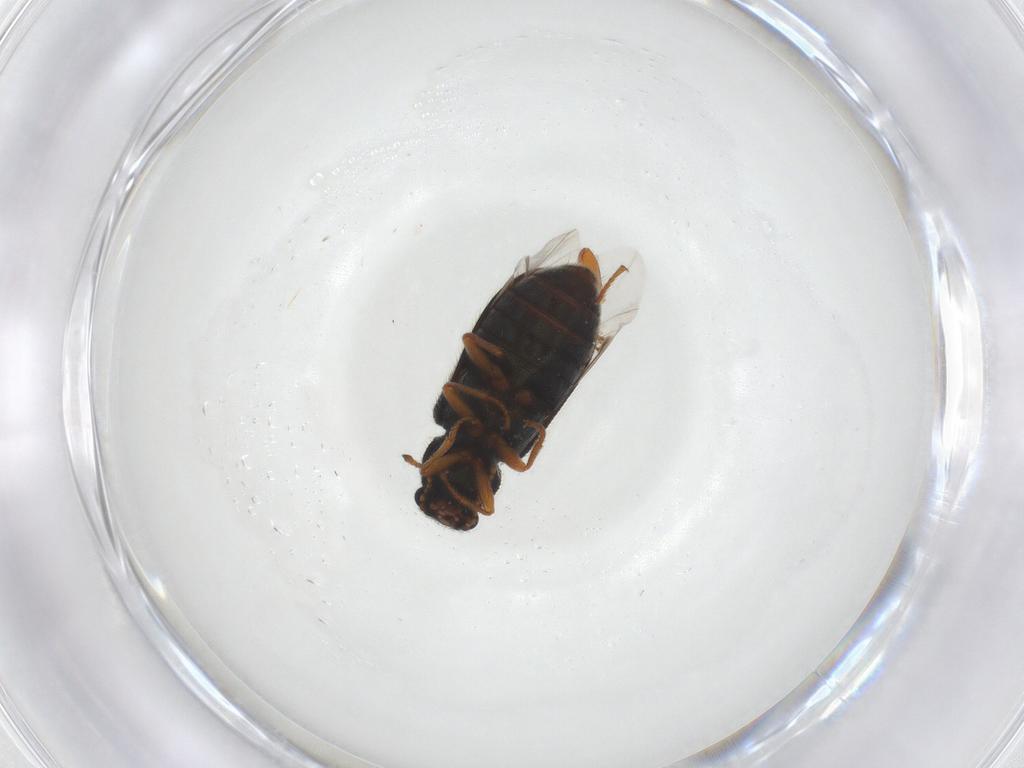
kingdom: Animalia
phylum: Arthropoda
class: Insecta
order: Coleoptera
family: Melyridae
